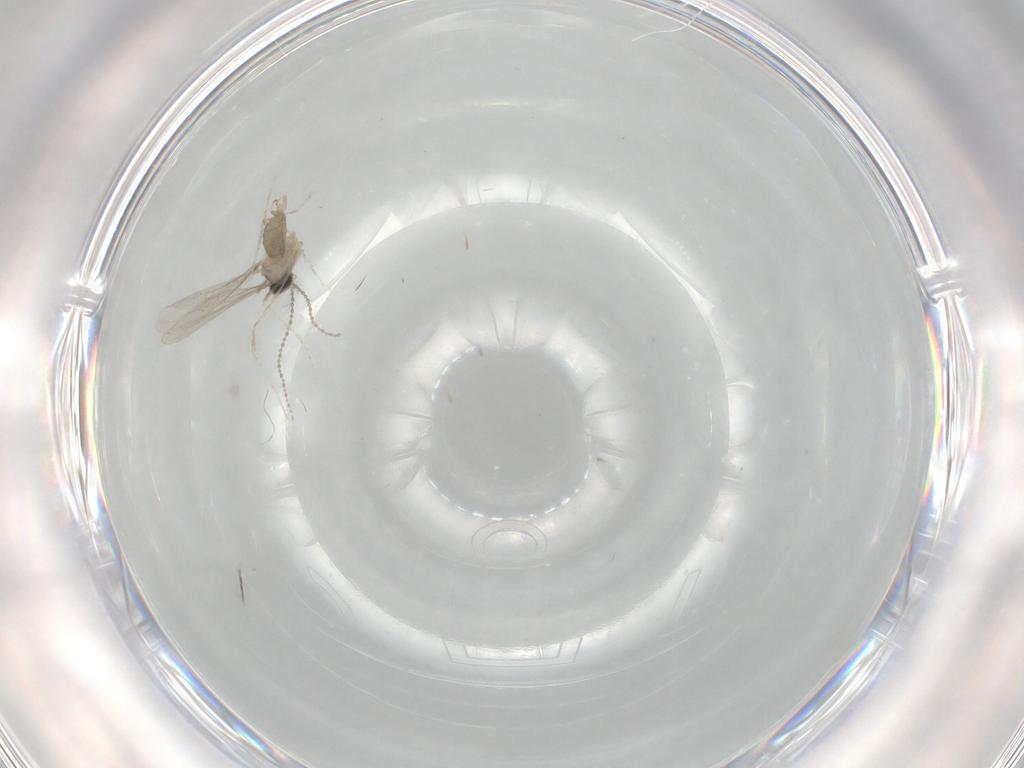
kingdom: Animalia
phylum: Arthropoda
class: Insecta
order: Diptera
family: Cecidomyiidae
